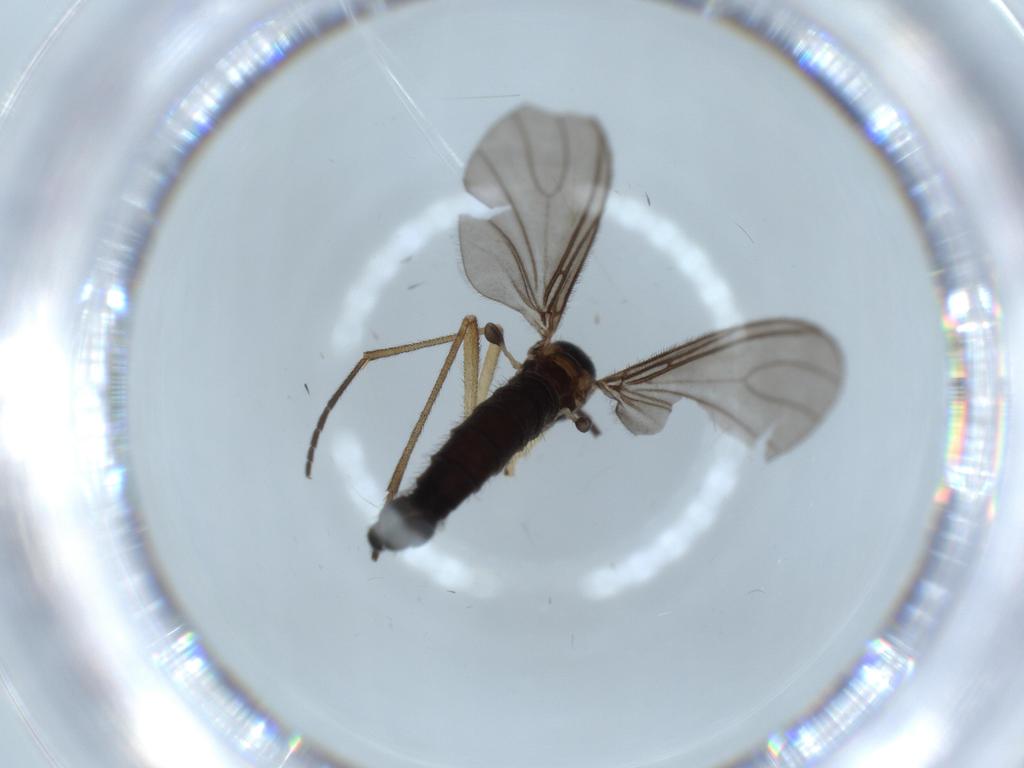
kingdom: Animalia
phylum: Arthropoda
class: Insecta
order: Diptera
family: Sciaridae
